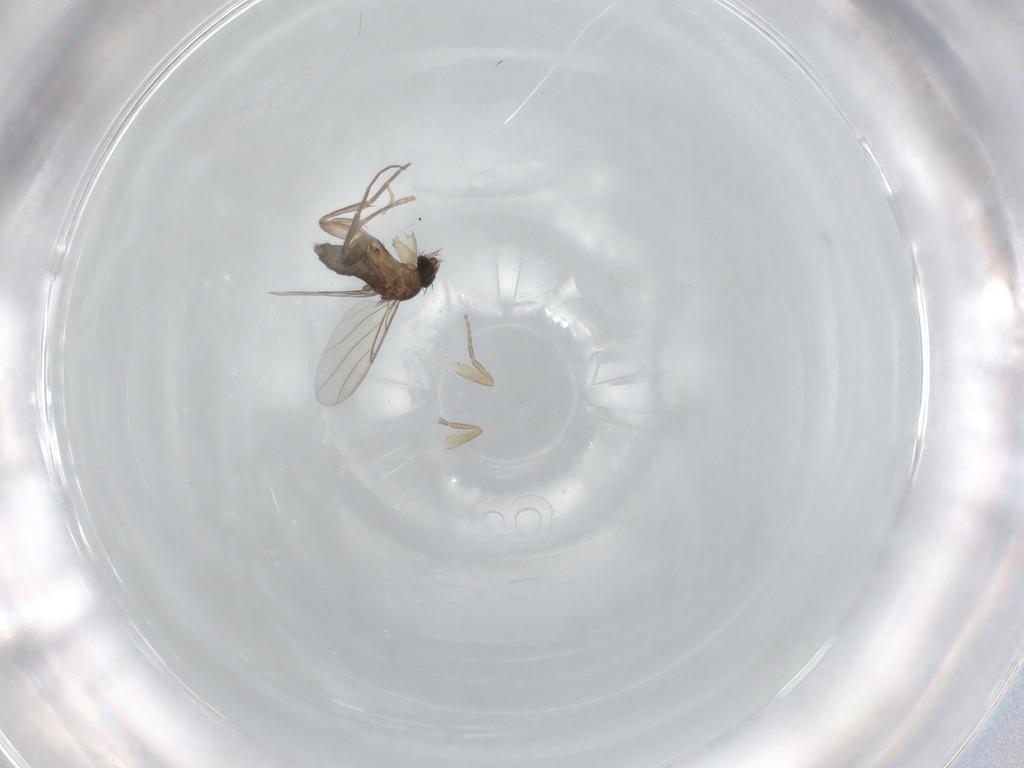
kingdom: Animalia
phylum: Arthropoda
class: Insecta
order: Diptera
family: Phoridae
